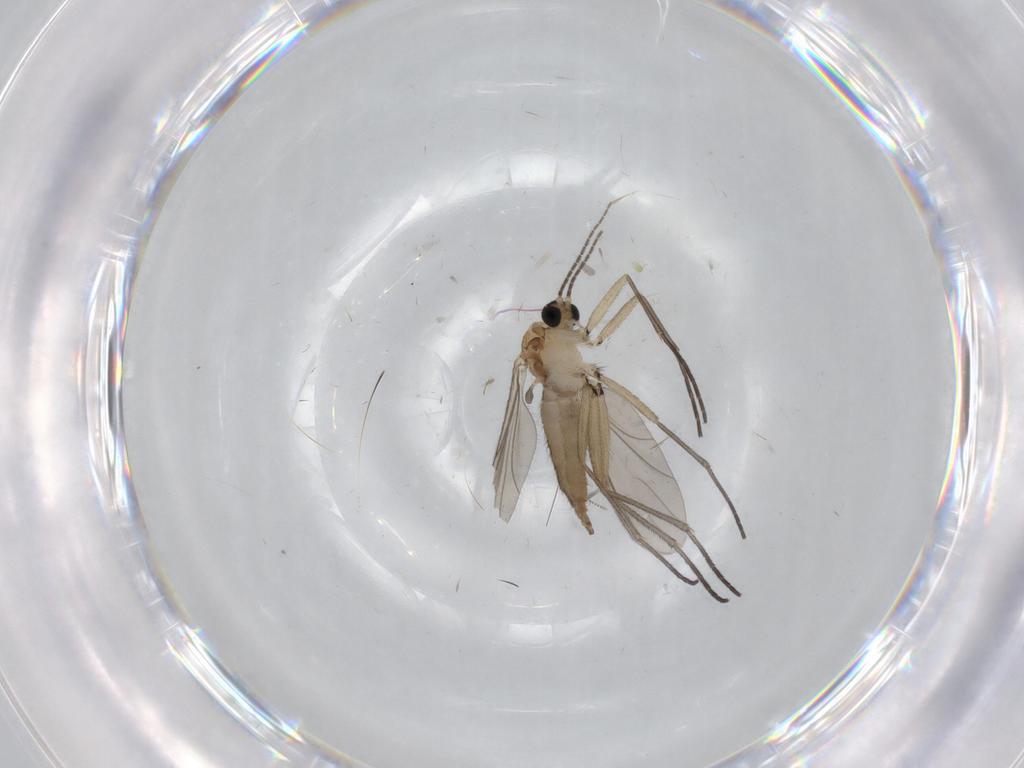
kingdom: Animalia
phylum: Arthropoda
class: Insecta
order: Diptera
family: Sciaridae
